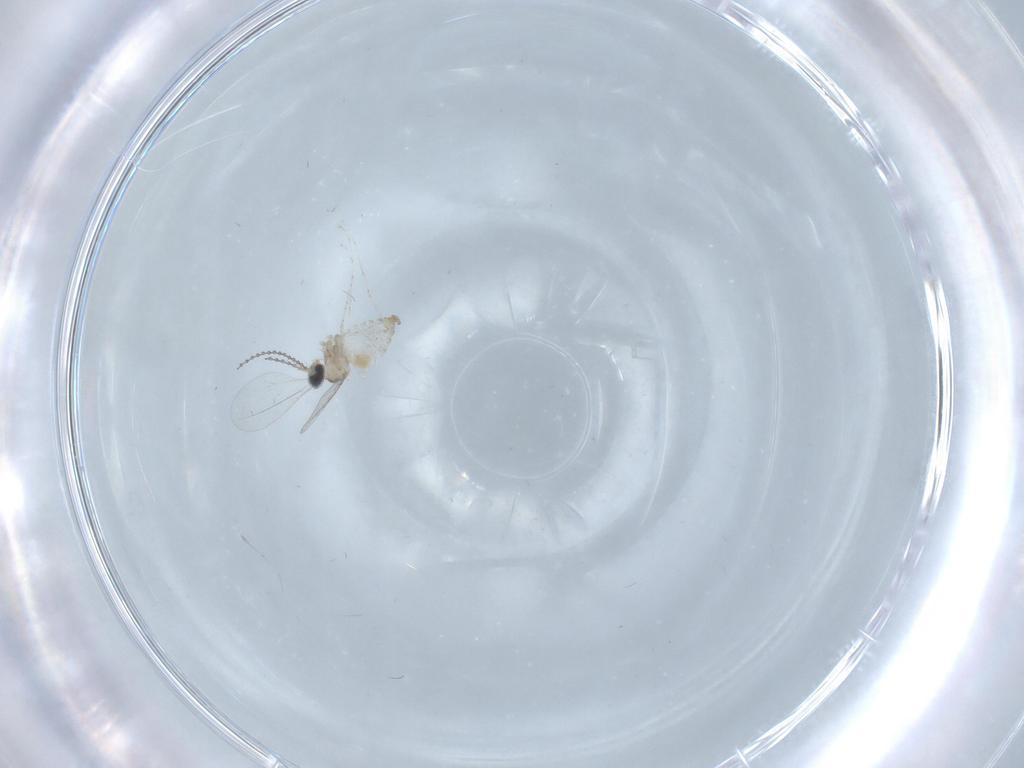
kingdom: Animalia
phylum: Arthropoda
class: Insecta
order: Diptera
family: Cecidomyiidae
